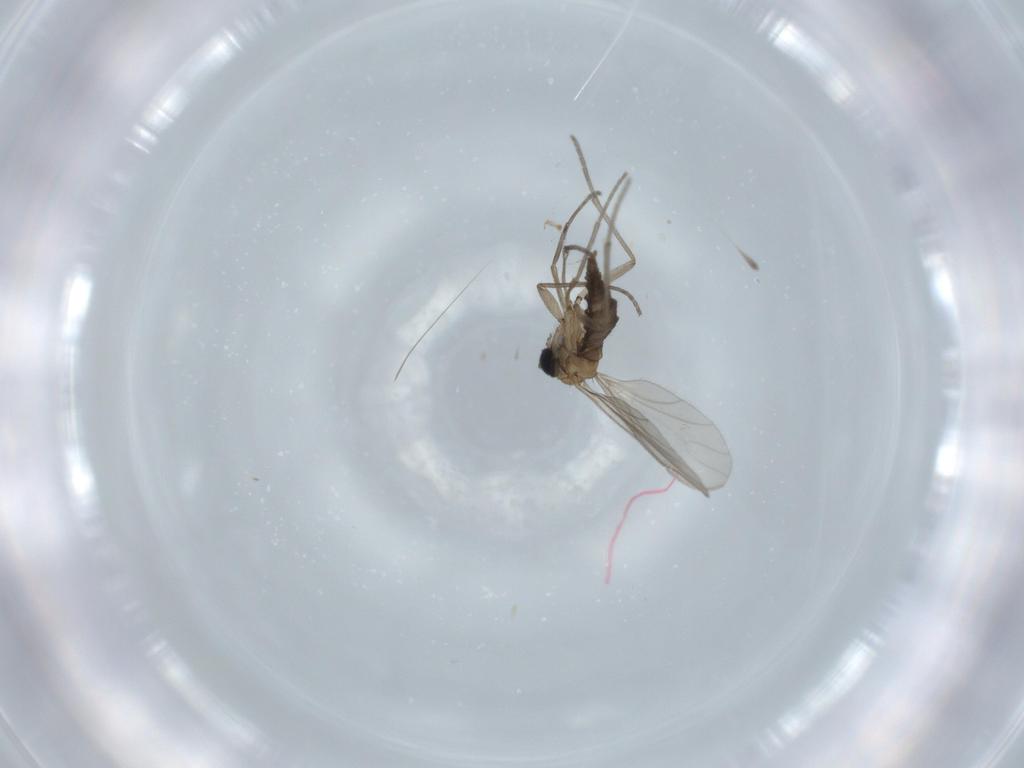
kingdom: Animalia
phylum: Arthropoda
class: Insecta
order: Diptera
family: Sciaridae
